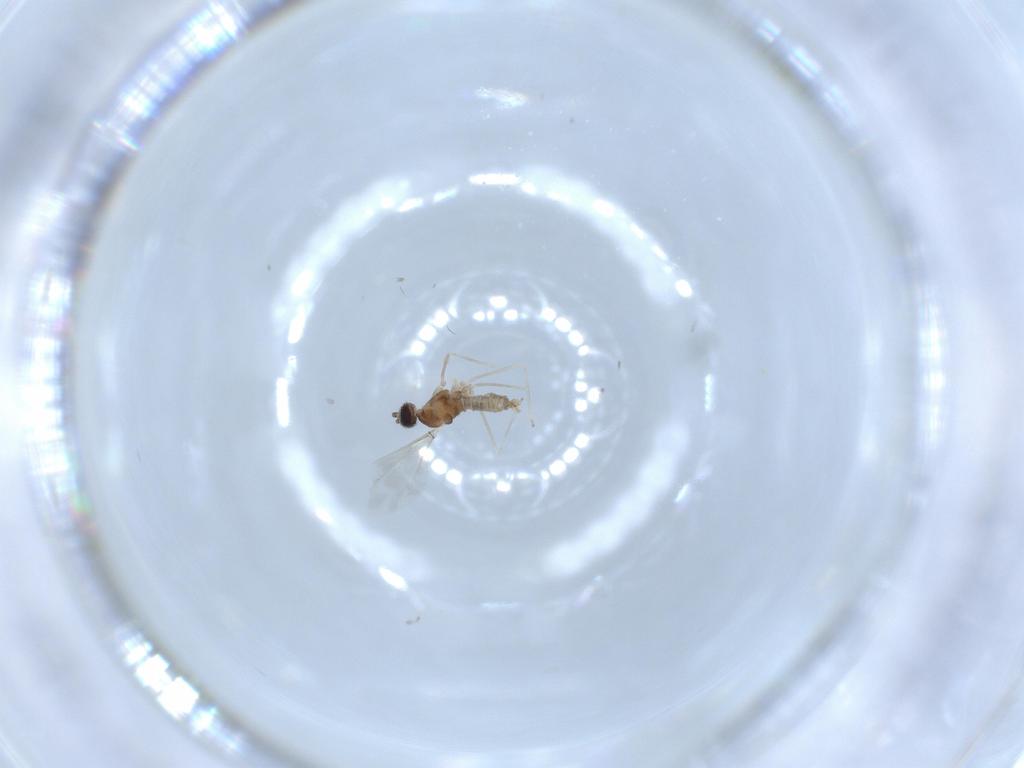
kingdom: Animalia
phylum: Arthropoda
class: Insecta
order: Diptera
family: Cecidomyiidae
